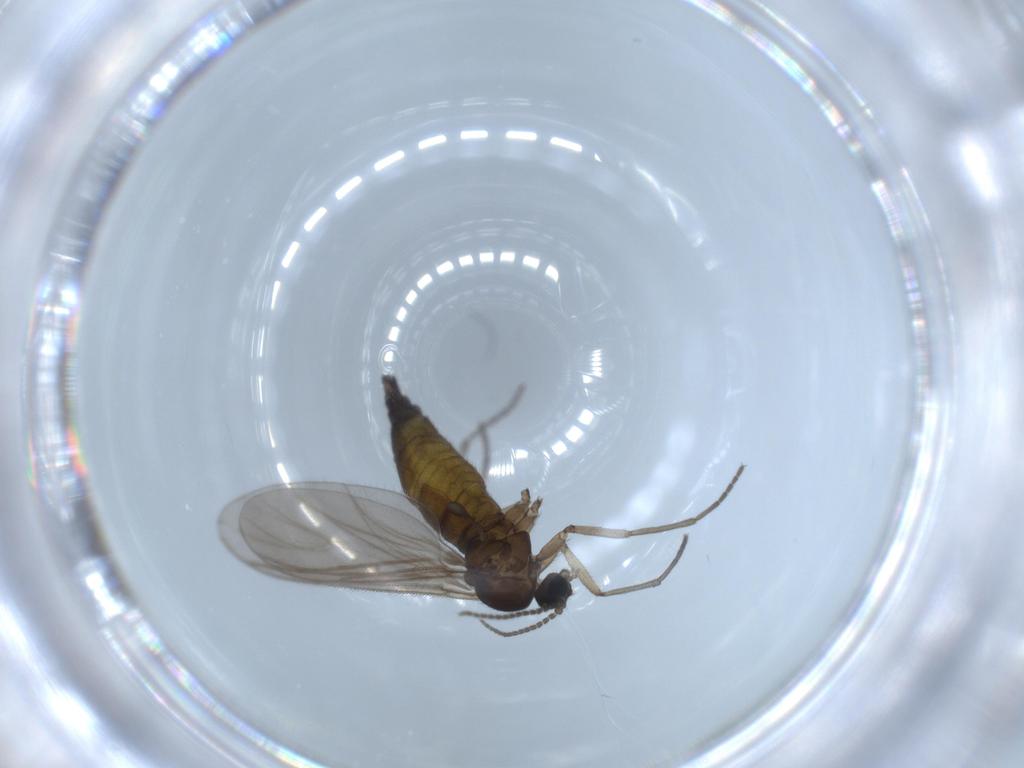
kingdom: Animalia
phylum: Arthropoda
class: Insecta
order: Diptera
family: Sciaridae
